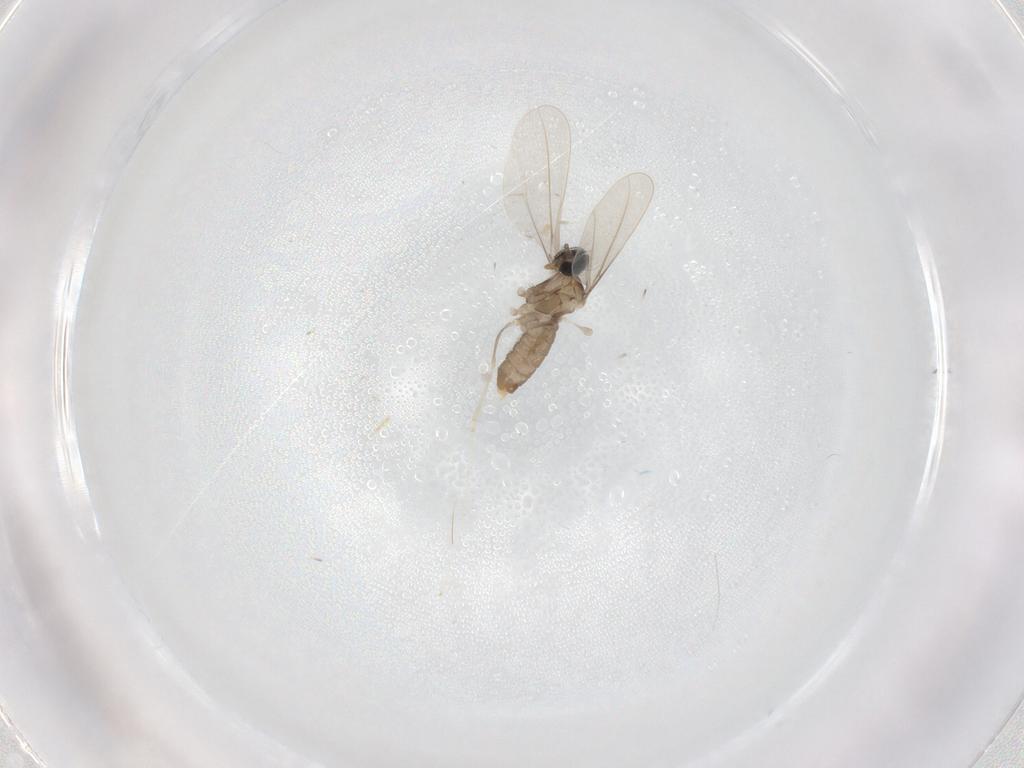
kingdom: Animalia
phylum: Arthropoda
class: Insecta
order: Diptera
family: Cecidomyiidae
